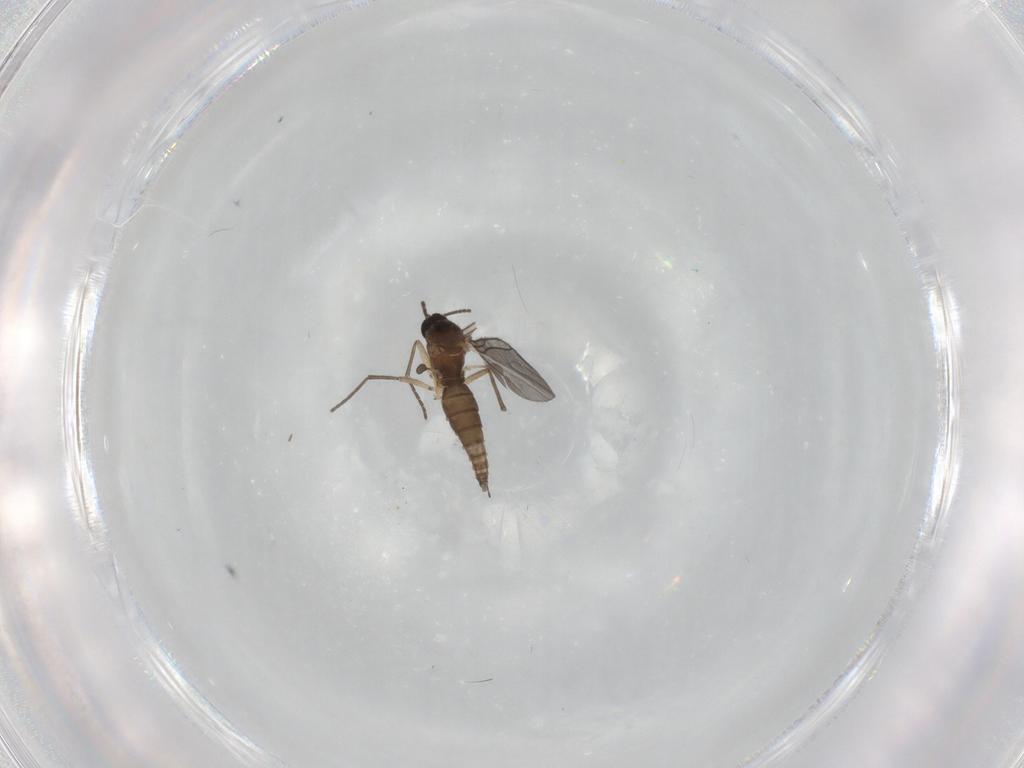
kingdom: Animalia
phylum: Arthropoda
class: Insecta
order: Diptera
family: Sciaridae
